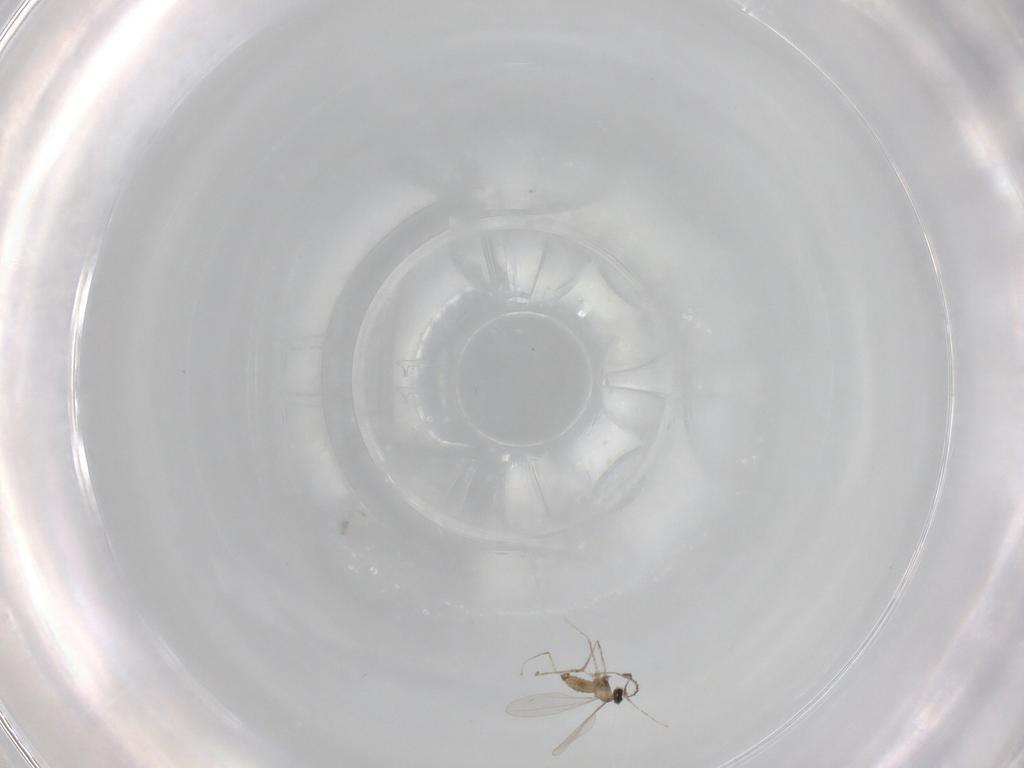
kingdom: Animalia
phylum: Arthropoda
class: Insecta
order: Diptera
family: Cecidomyiidae
